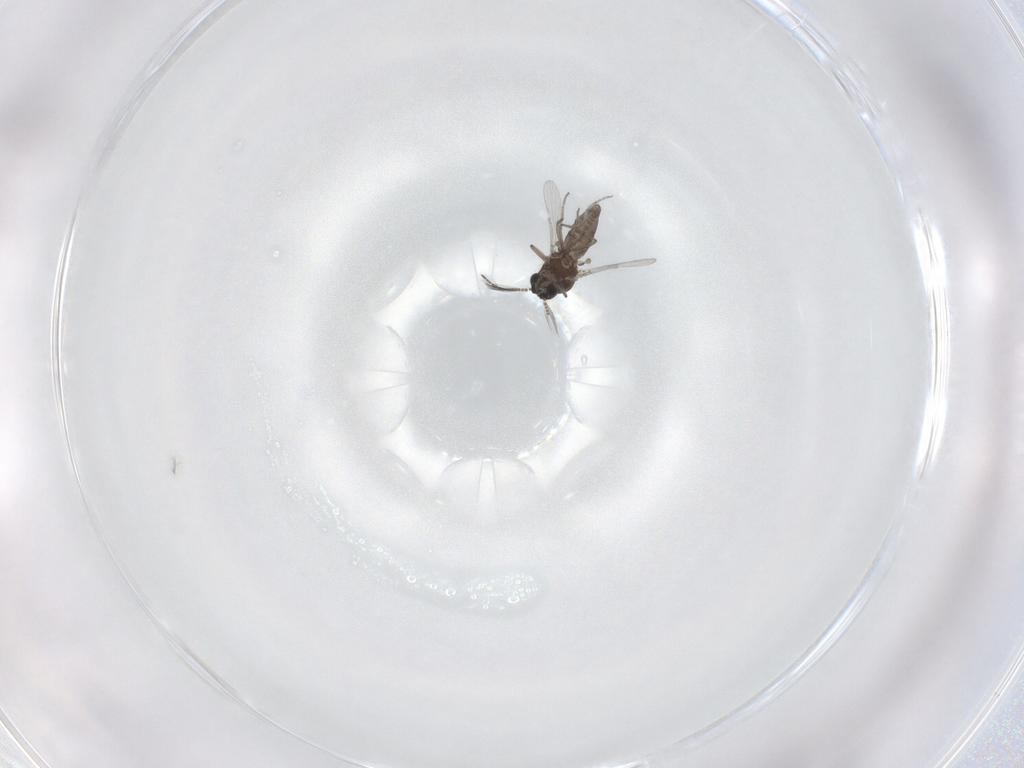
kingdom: Animalia
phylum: Arthropoda
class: Insecta
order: Diptera
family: Ceratopogonidae
